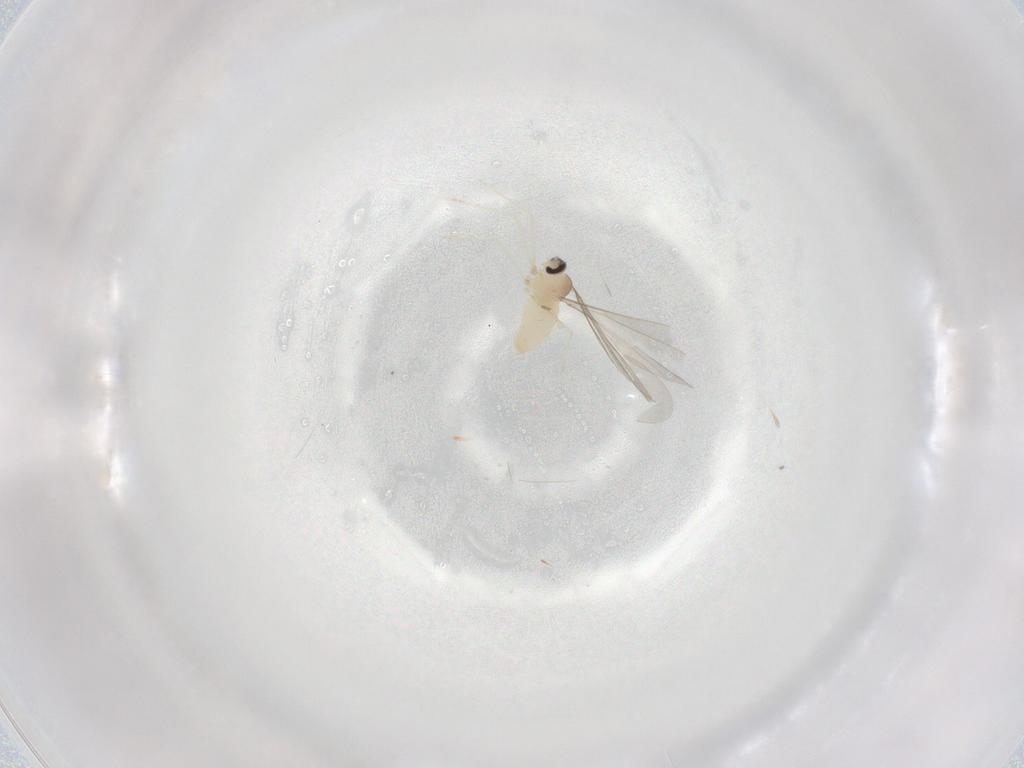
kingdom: Animalia
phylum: Arthropoda
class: Insecta
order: Diptera
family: Cecidomyiidae
